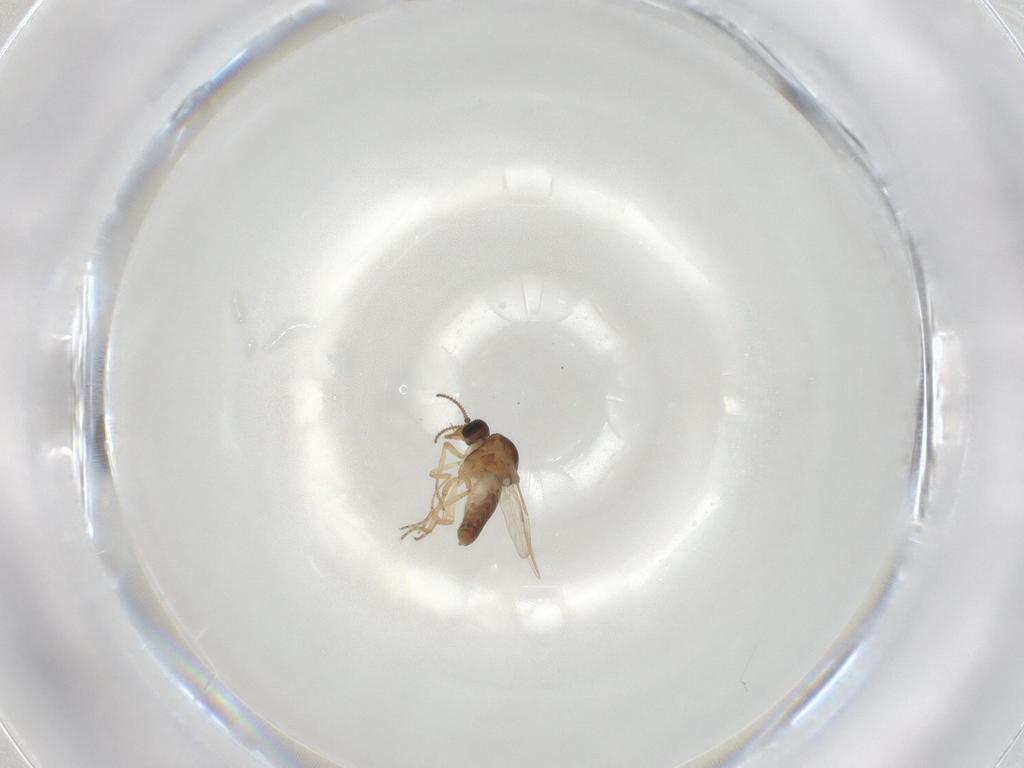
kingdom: Animalia
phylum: Arthropoda
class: Insecta
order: Diptera
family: Ceratopogonidae
